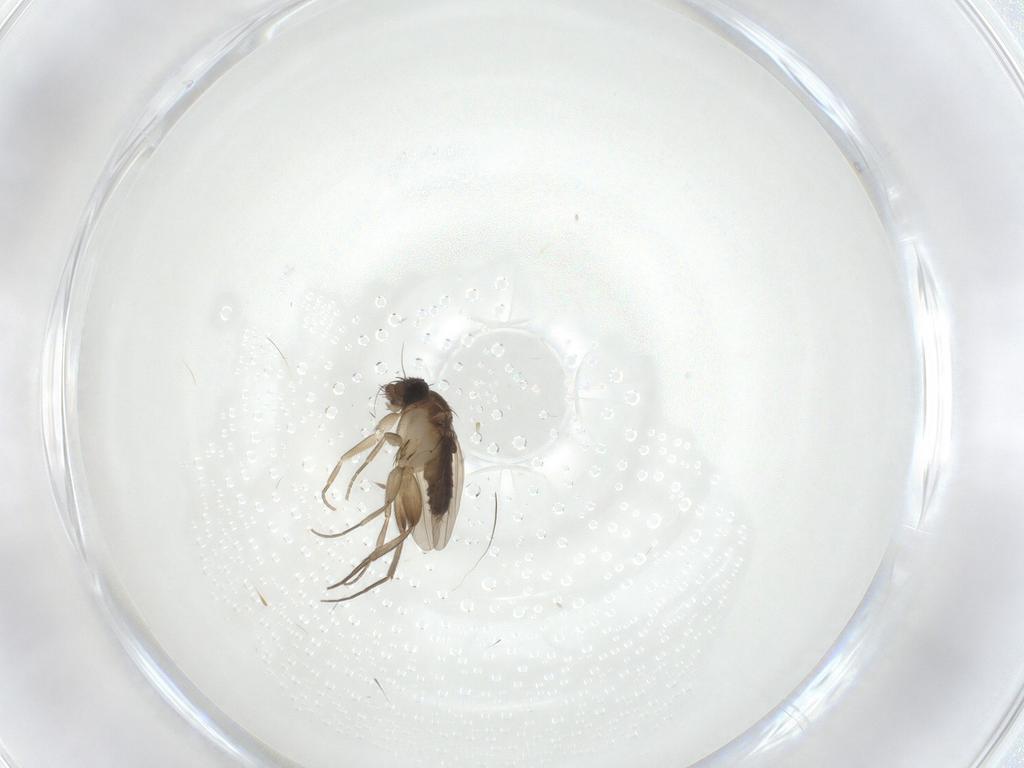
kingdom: Animalia
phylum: Arthropoda
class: Insecta
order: Diptera
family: Phoridae
